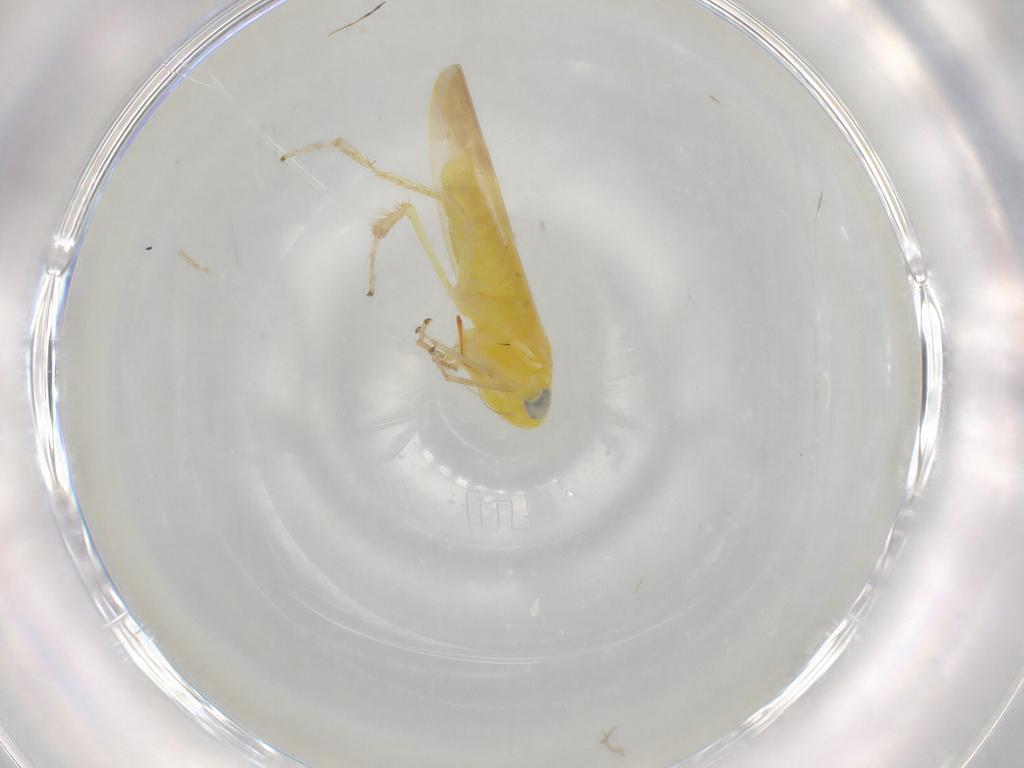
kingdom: Animalia
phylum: Arthropoda
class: Insecta
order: Hemiptera
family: Cicadellidae
